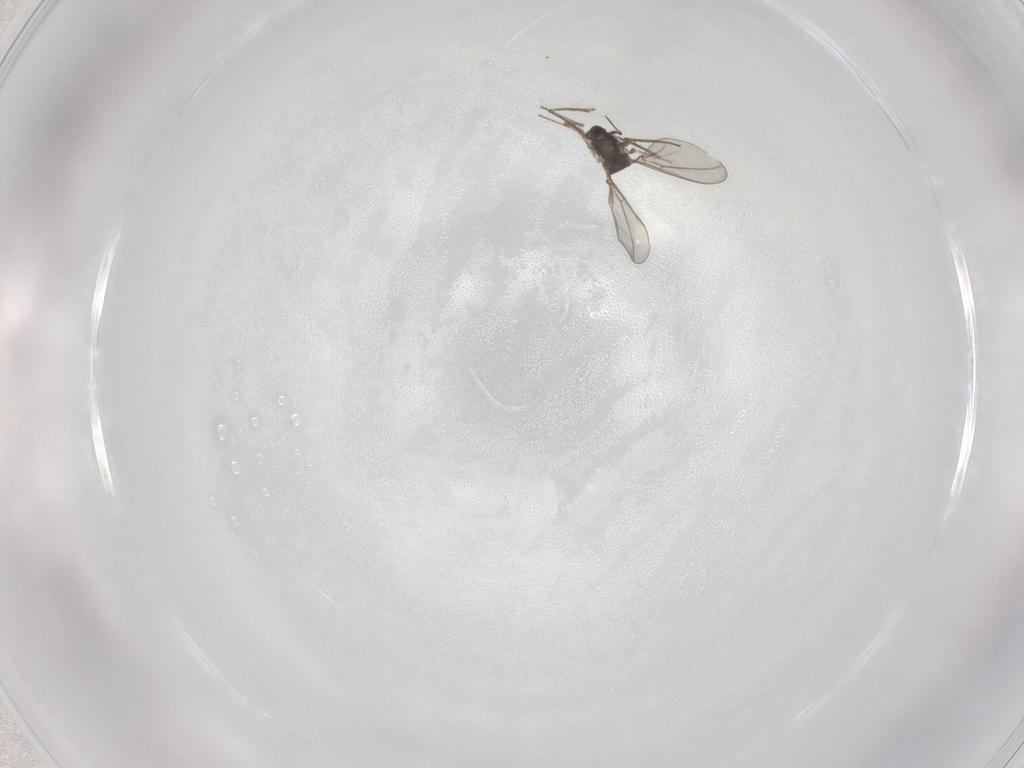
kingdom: Animalia
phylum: Arthropoda
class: Insecta
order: Diptera
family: Cecidomyiidae
